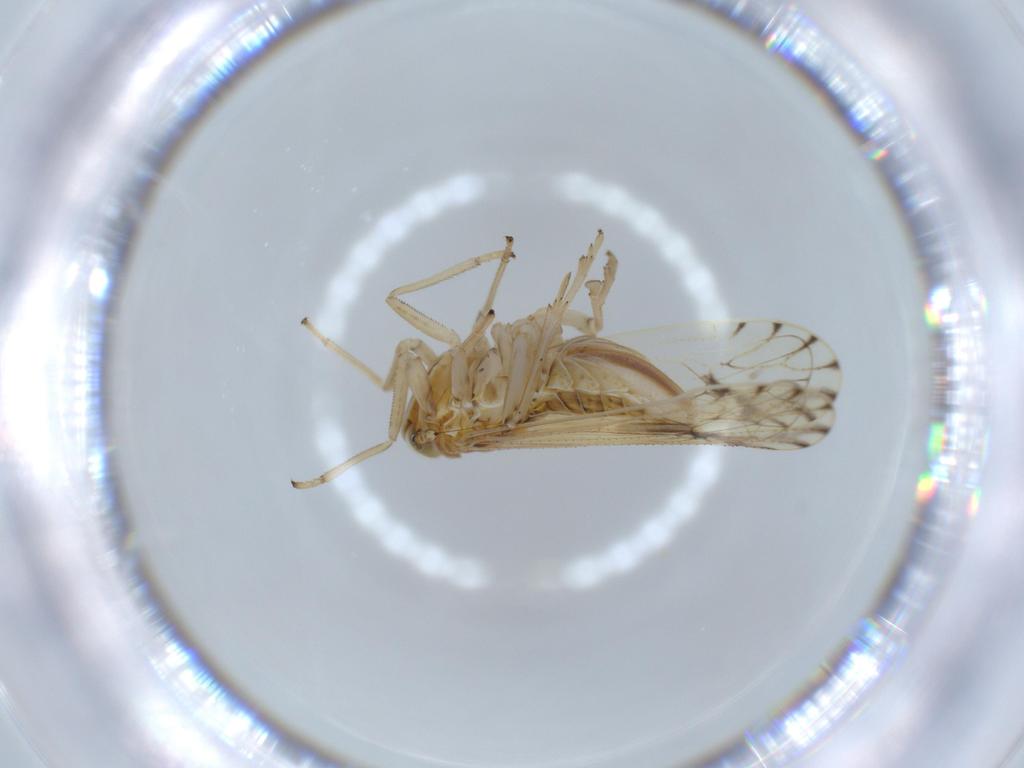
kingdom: Animalia
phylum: Arthropoda
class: Insecta
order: Hemiptera
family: Delphacidae
